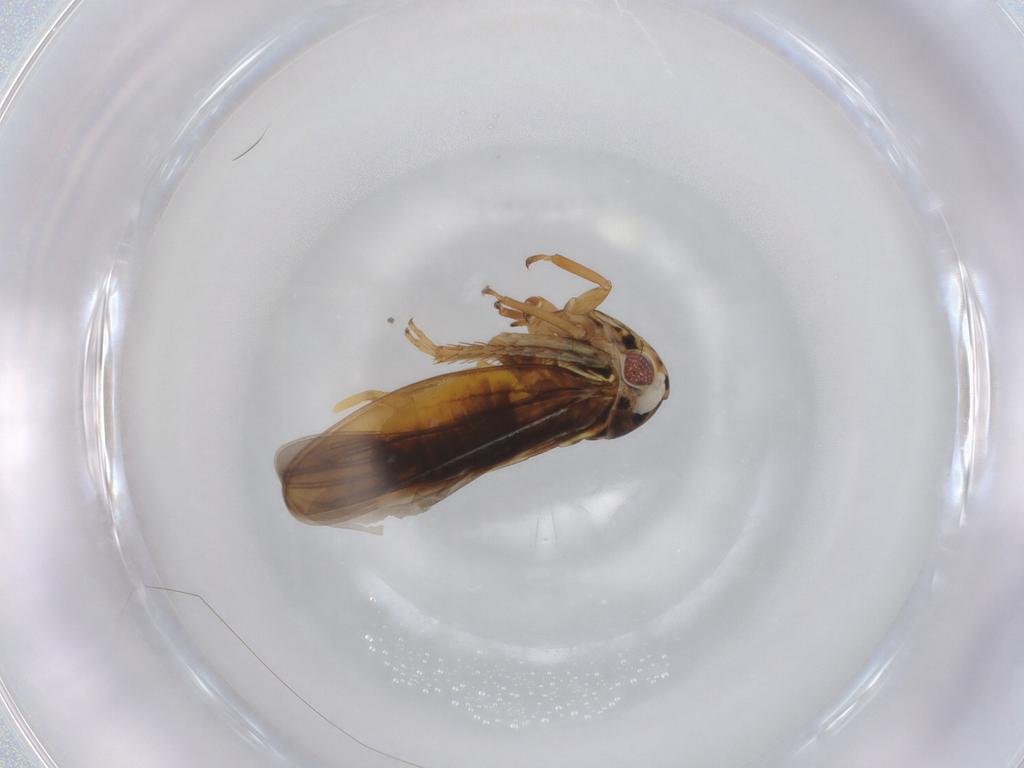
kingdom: Animalia
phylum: Arthropoda
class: Insecta
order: Hemiptera
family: Cicadellidae
